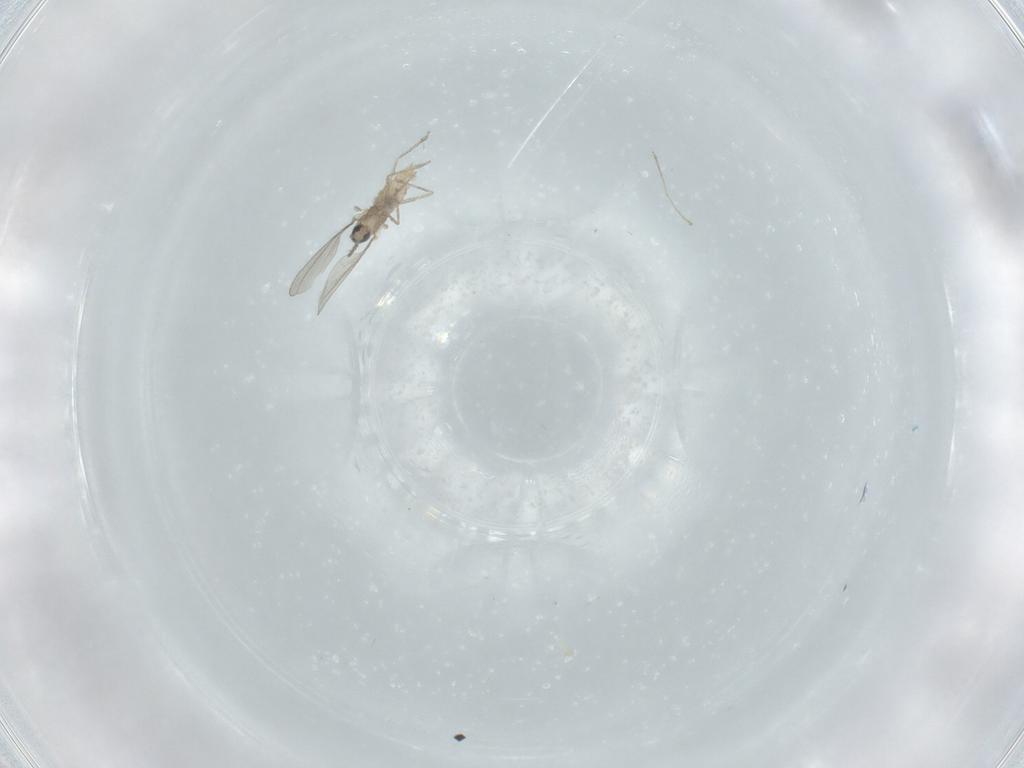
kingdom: Animalia
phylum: Arthropoda
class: Insecta
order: Diptera
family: Cecidomyiidae
